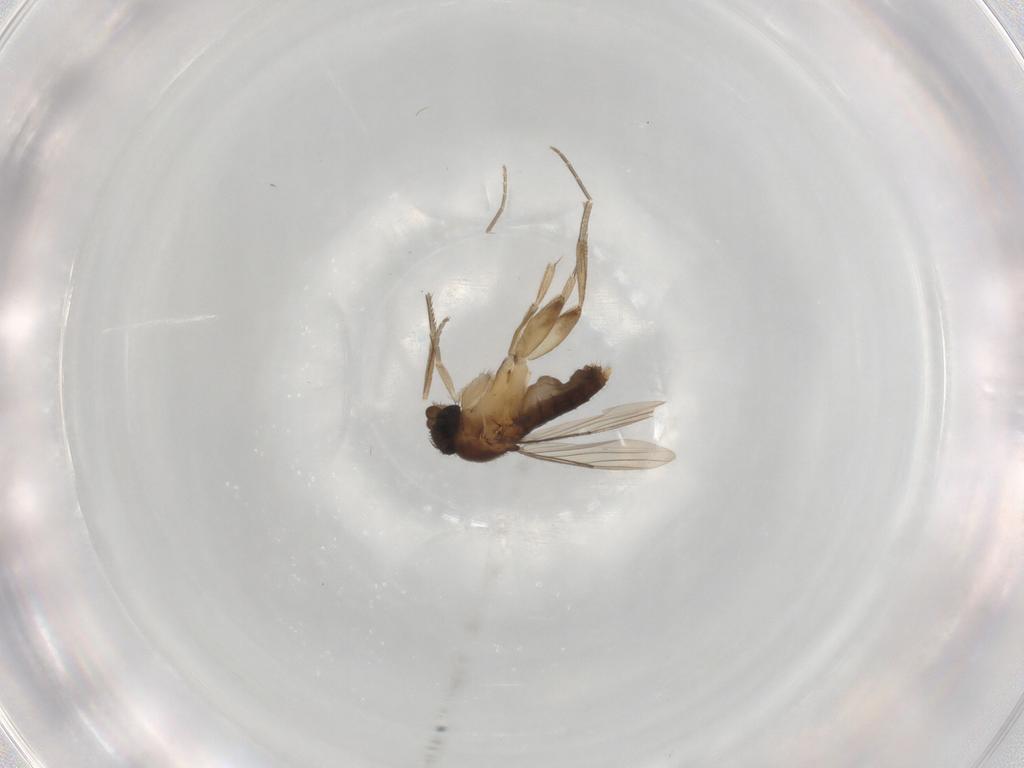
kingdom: Animalia
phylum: Arthropoda
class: Insecta
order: Diptera
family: Phoridae
